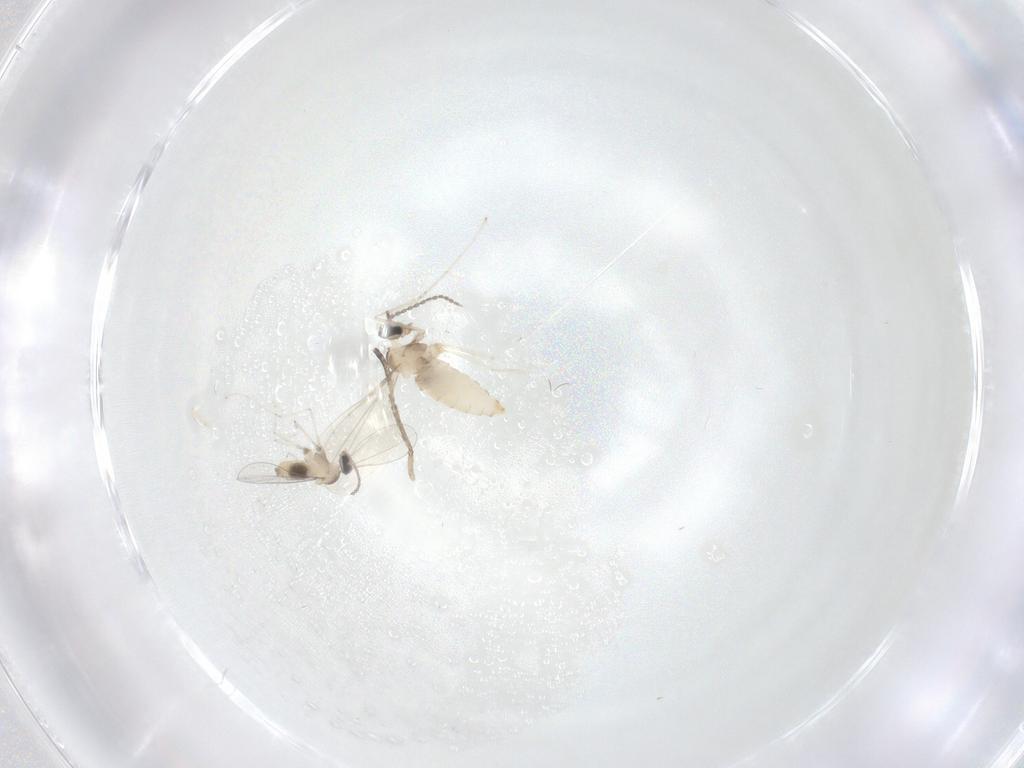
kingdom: Animalia
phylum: Arthropoda
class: Insecta
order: Diptera
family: Cecidomyiidae
